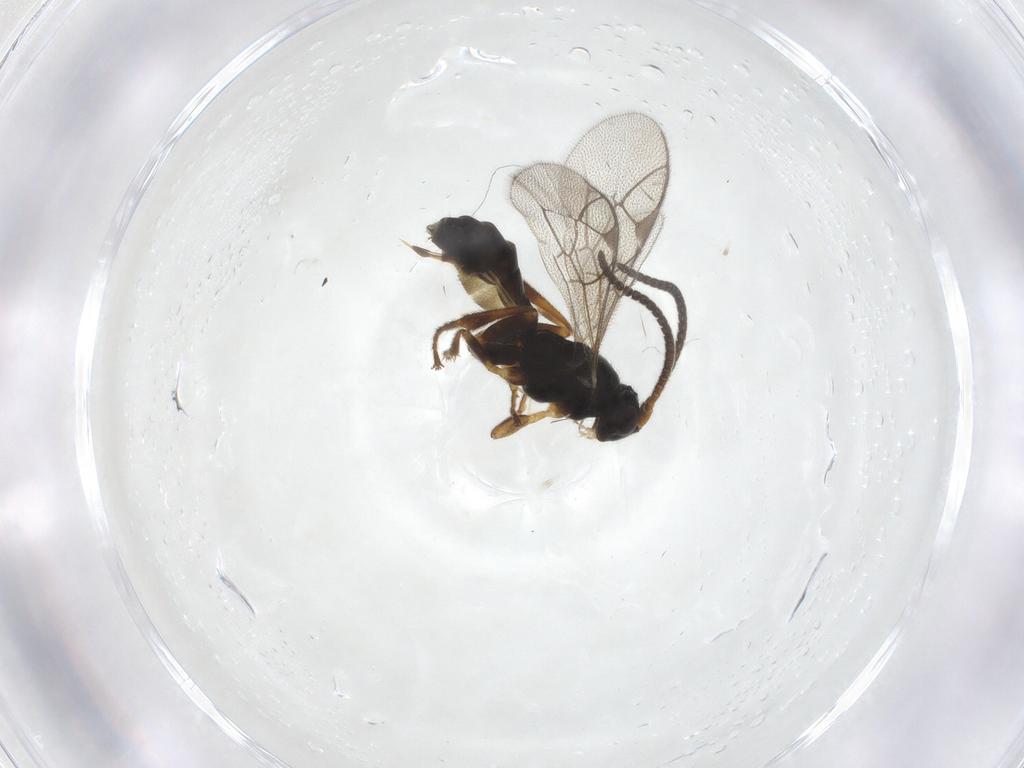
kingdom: Animalia
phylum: Arthropoda
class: Insecta
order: Hymenoptera
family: Ichneumonidae
